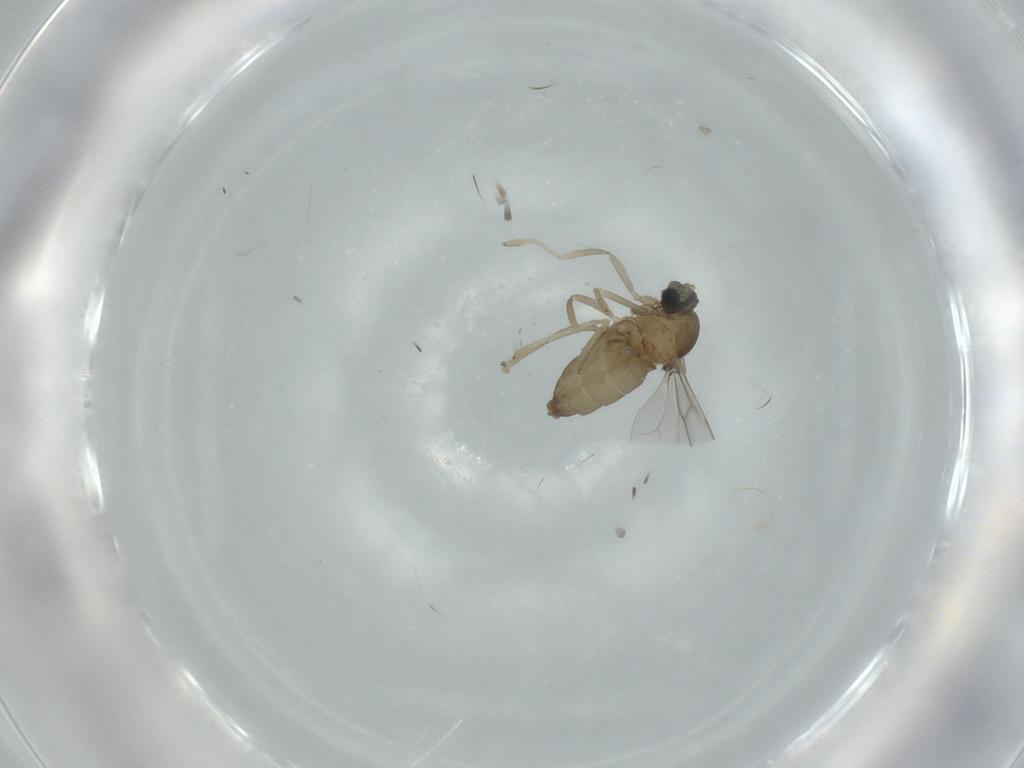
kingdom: Animalia
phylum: Arthropoda
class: Insecta
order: Diptera
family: Cecidomyiidae
